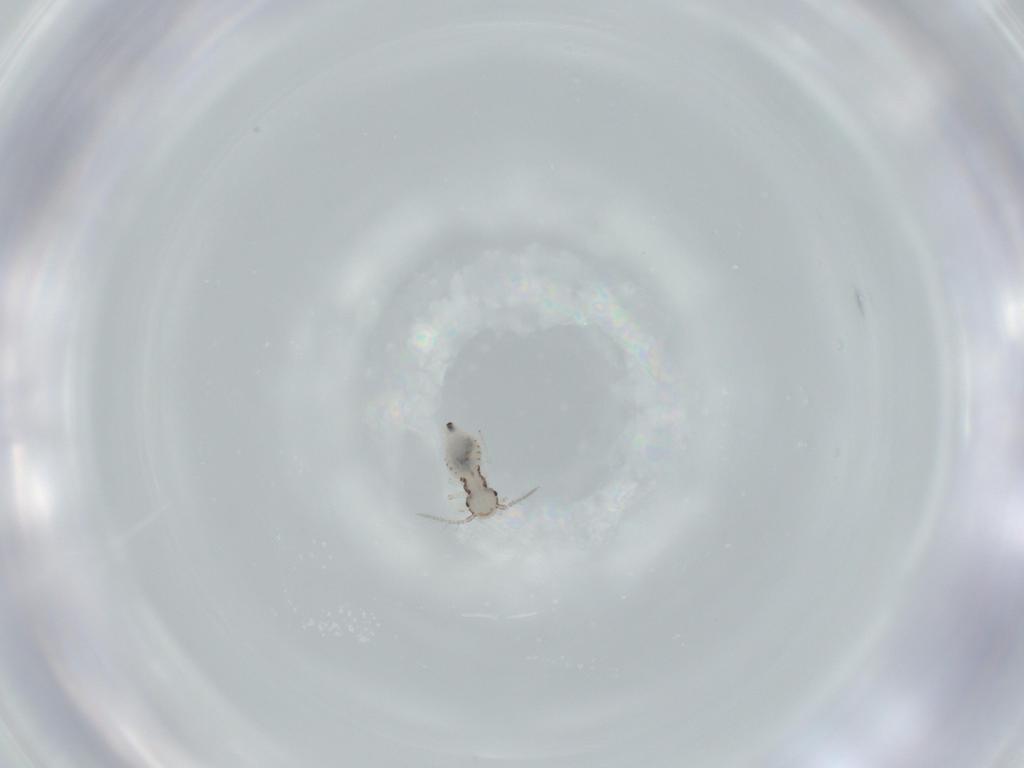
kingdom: Animalia
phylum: Arthropoda
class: Insecta
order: Psocodea
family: Pseudocaeciliidae
